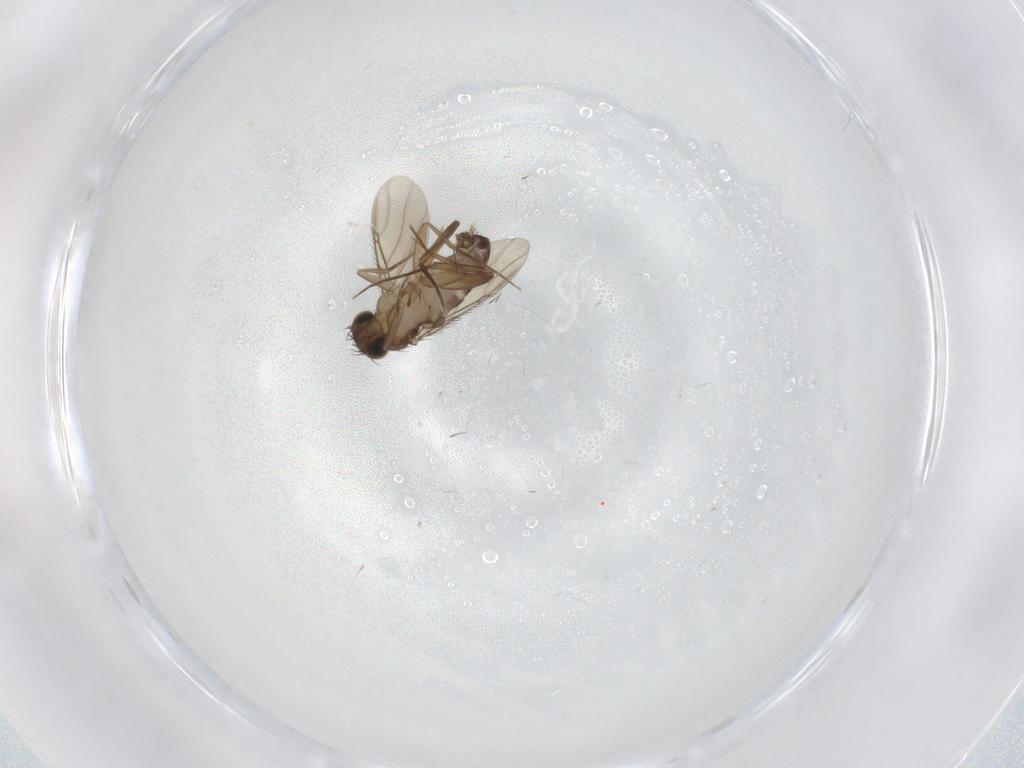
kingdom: Animalia
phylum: Arthropoda
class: Insecta
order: Diptera
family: Phoridae
